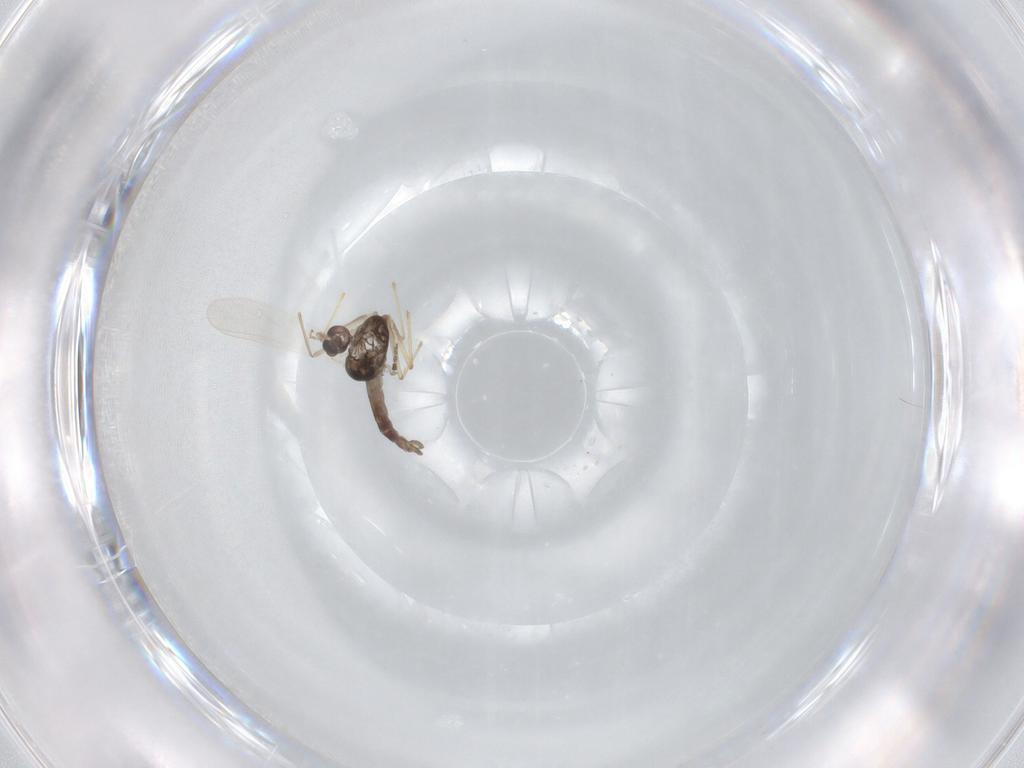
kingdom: Animalia
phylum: Arthropoda
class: Insecta
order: Diptera
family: Chironomidae
